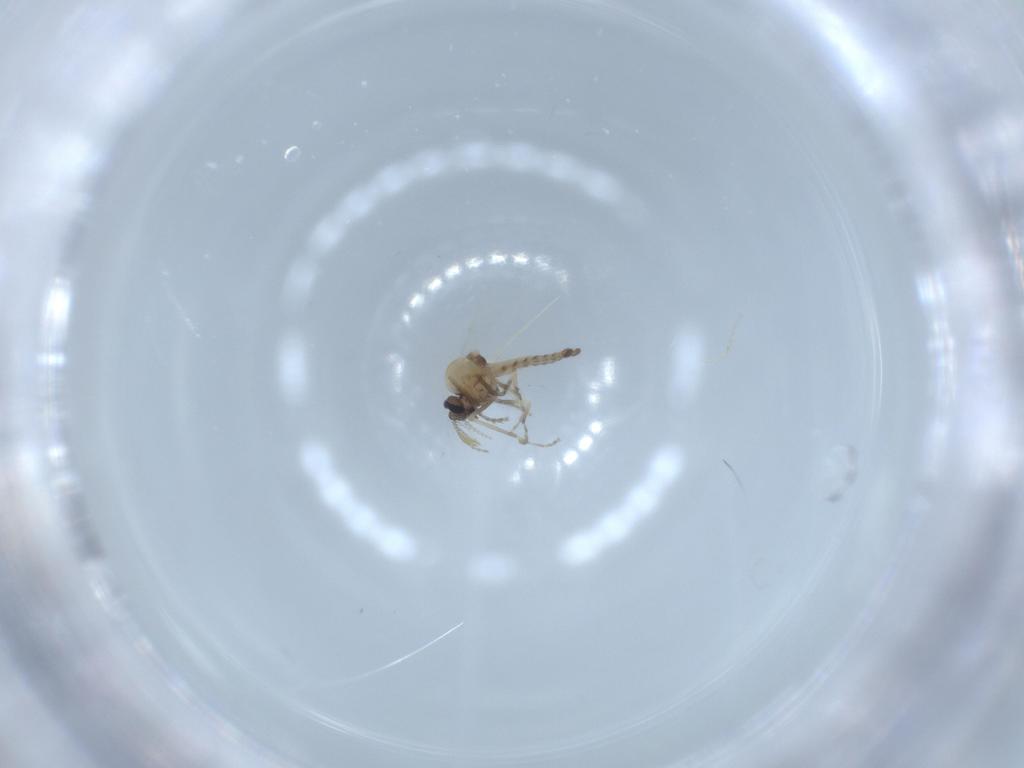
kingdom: Animalia
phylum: Arthropoda
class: Insecta
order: Diptera
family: Ceratopogonidae
